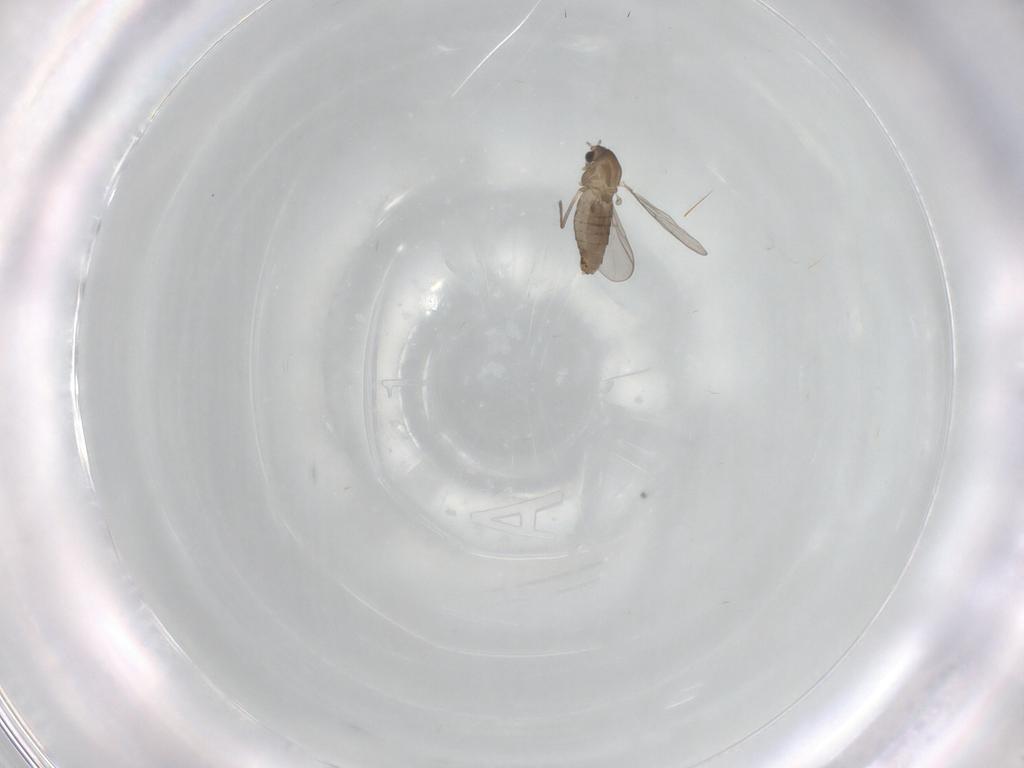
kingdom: Animalia
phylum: Arthropoda
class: Insecta
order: Diptera
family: Chironomidae
